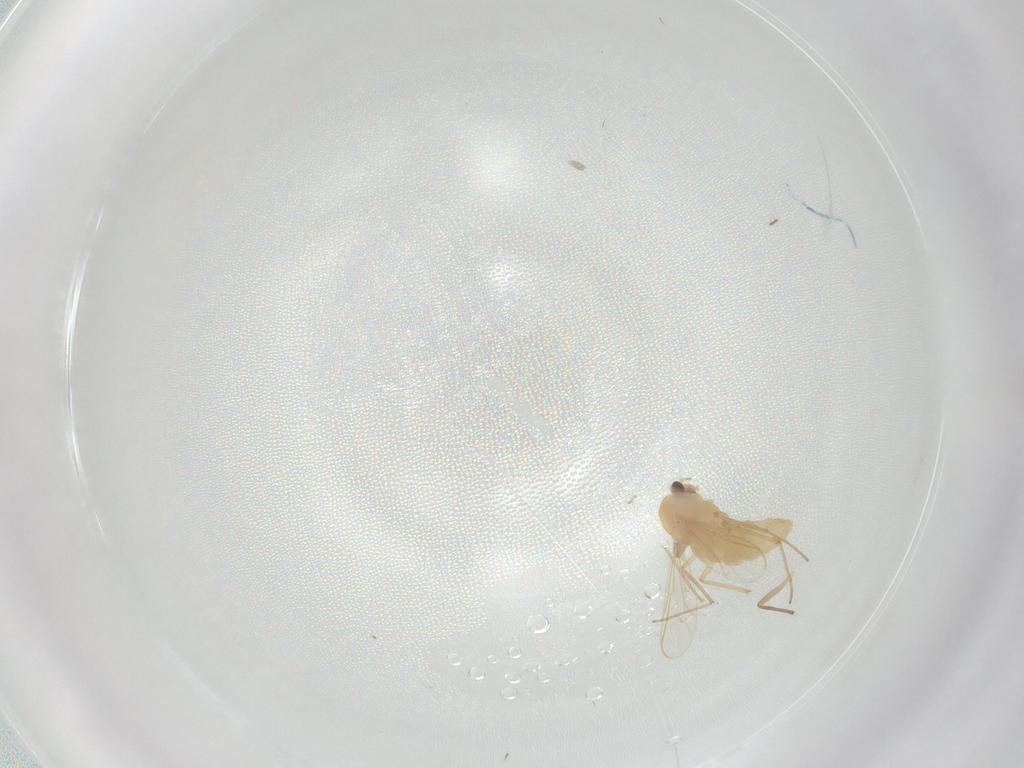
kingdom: Animalia
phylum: Arthropoda
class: Insecta
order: Diptera
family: Chironomidae
